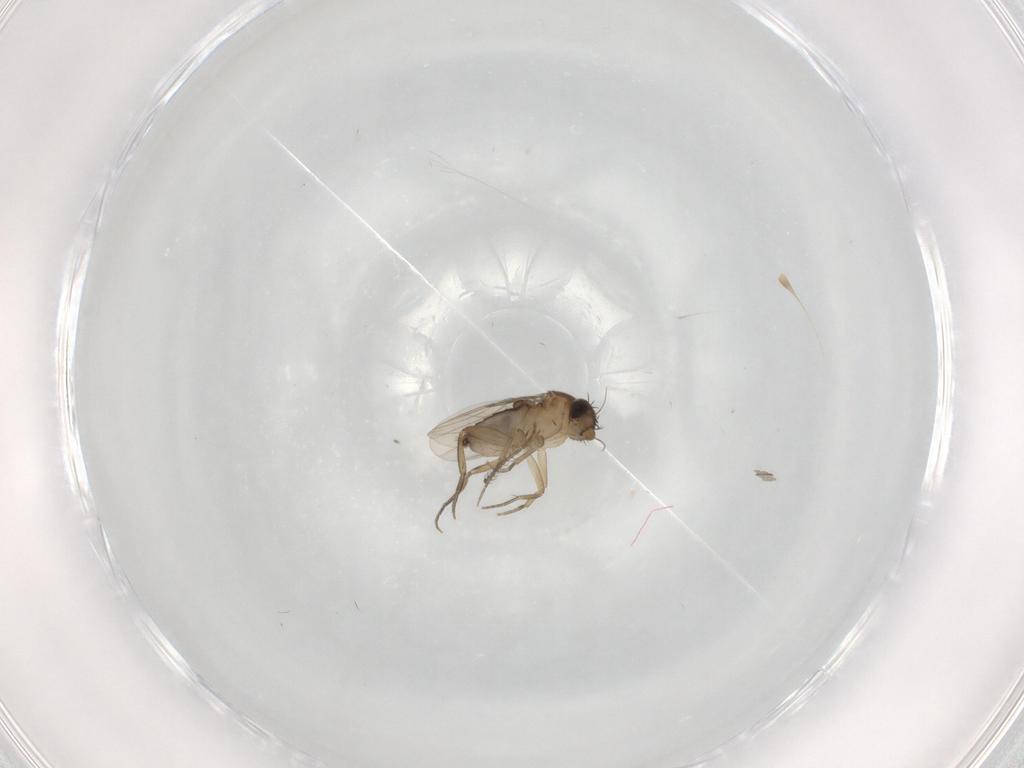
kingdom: Animalia
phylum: Arthropoda
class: Insecta
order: Diptera
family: Phoridae
